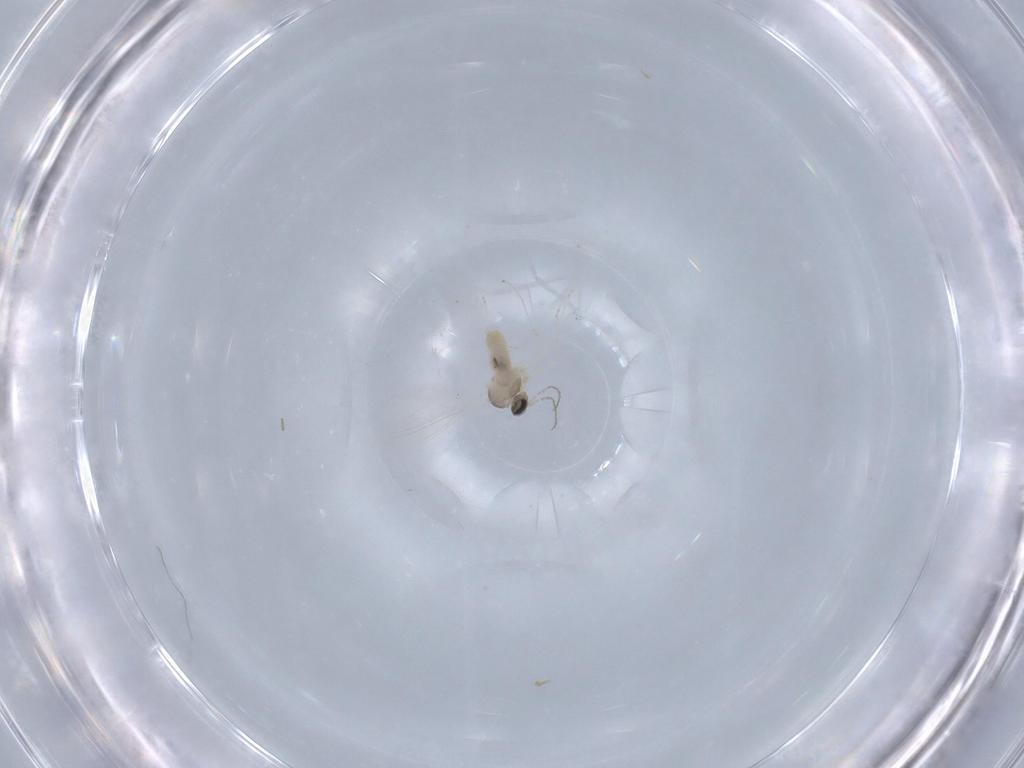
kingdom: Animalia
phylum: Arthropoda
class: Insecta
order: Diptera
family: Cecidomyiidae
